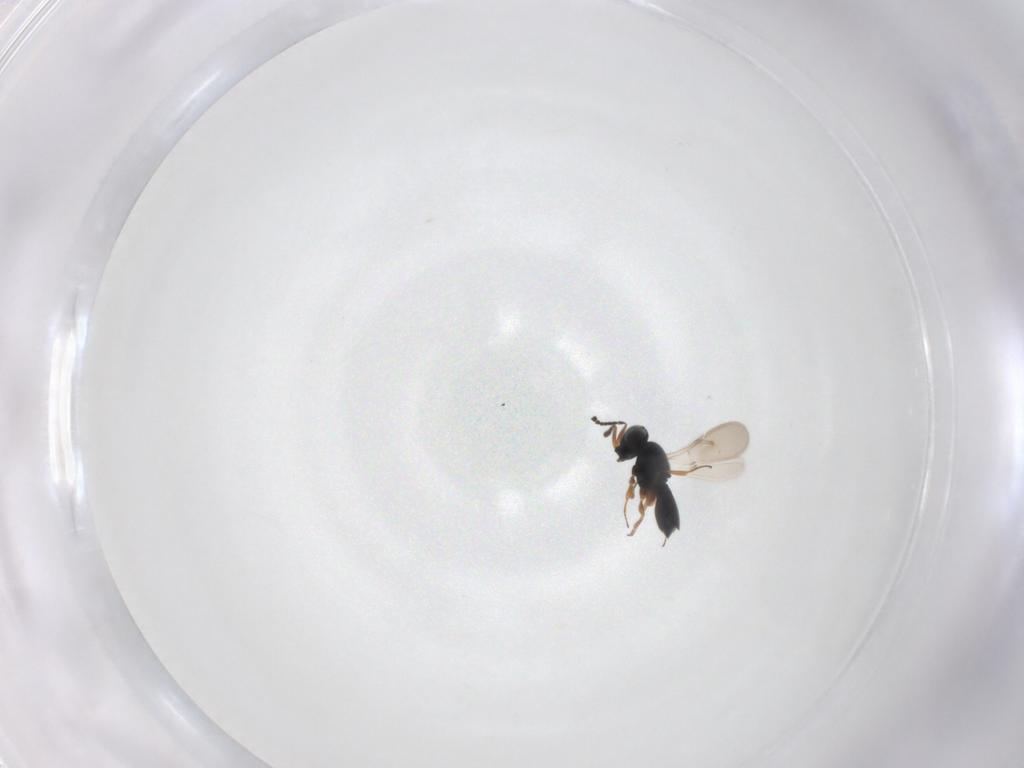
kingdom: Animalia
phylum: Arthropoda
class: Insecta
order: Hymenoptera
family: Scelionidae
